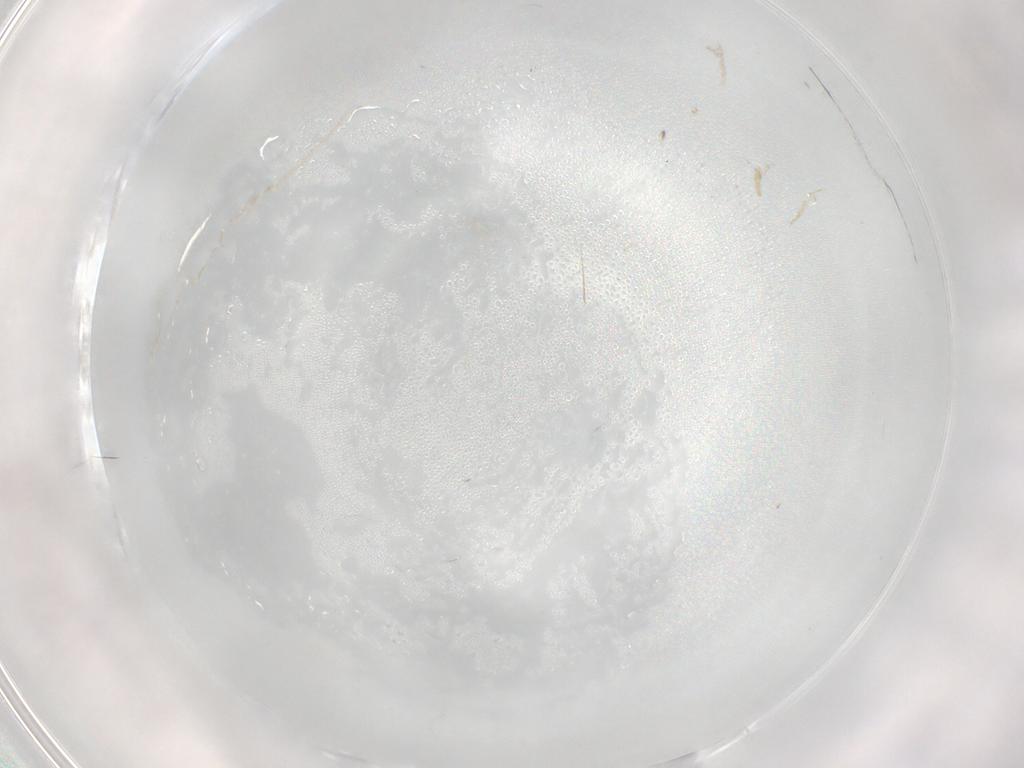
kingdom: Animalia
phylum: Arthropoda
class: Insecta
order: Diptera
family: Cecidomyiidae
